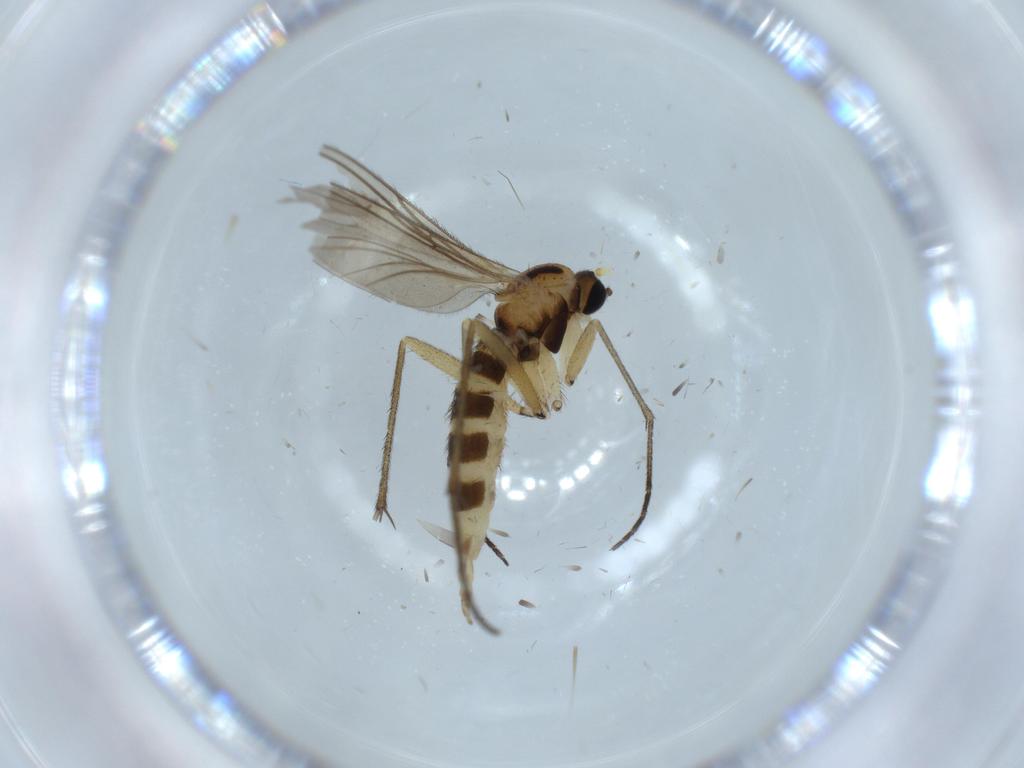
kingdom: Animalia
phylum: Arthropoda
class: Insecta
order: Diptera
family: Sciaridae
